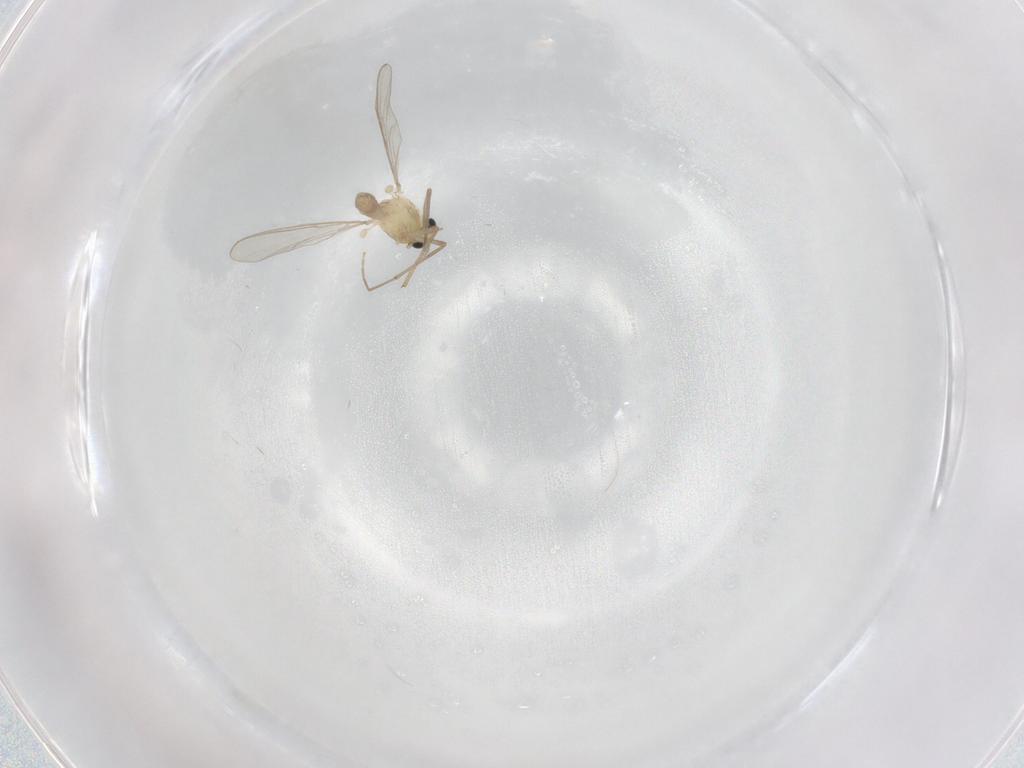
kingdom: Animalia
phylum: Arthropoda
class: Insecta
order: Diptera
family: Chironomidae
